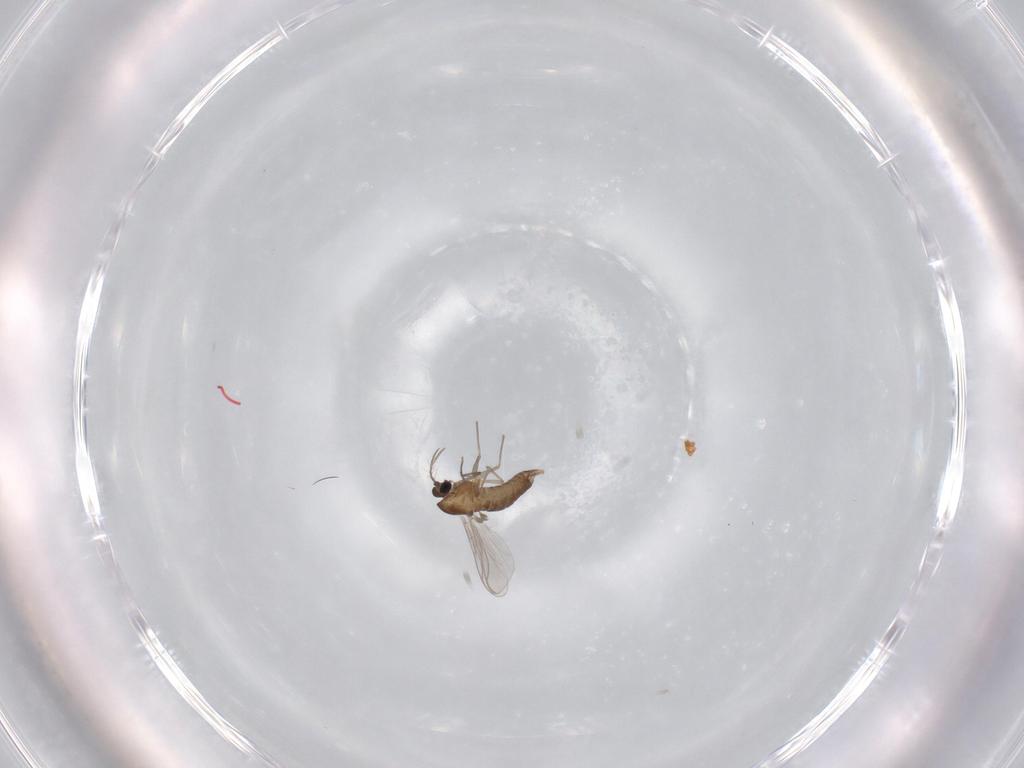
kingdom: Animalia
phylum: Arthropoda
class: Insecta
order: Diptera
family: Chironomidae
